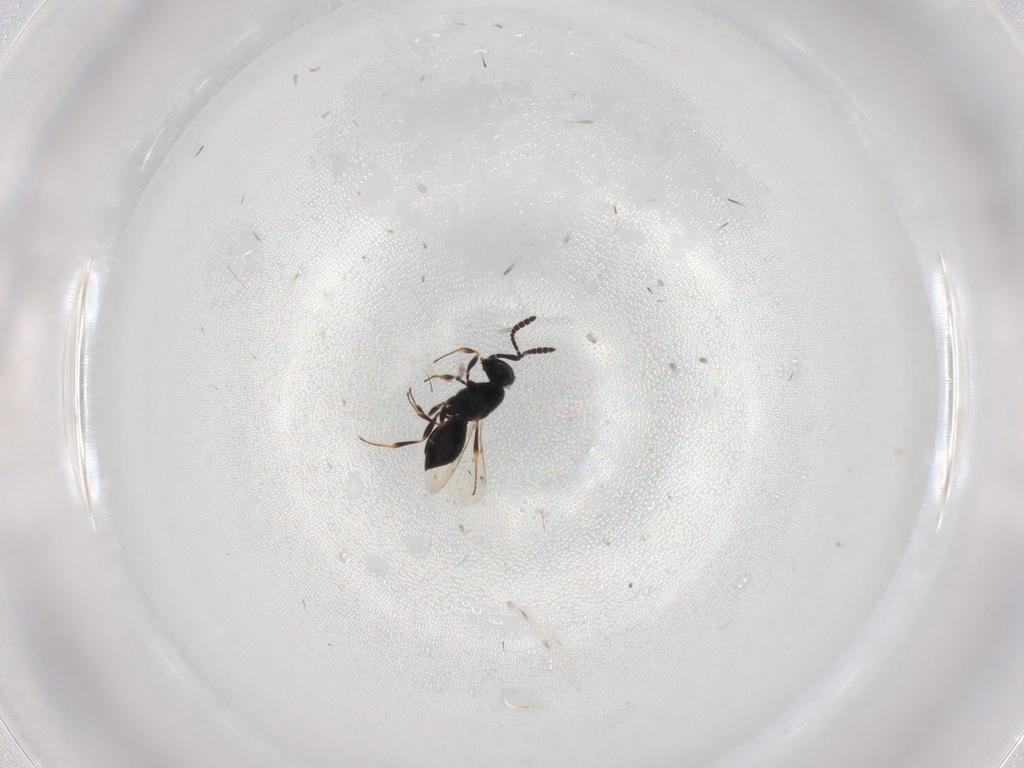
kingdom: Animalia
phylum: Arthropoda
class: Insecta
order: Hymenoptera
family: Scelionidae
